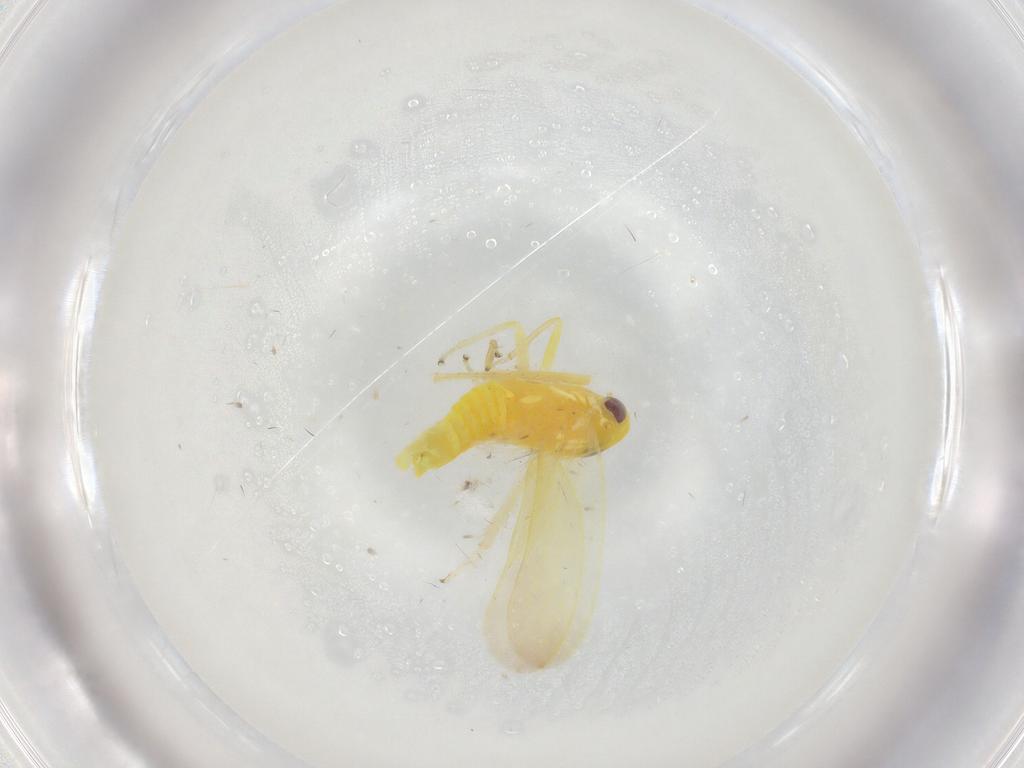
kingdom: Animalia
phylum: Arthropoda
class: Insecta
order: Hemiptera
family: Cicadellidae
